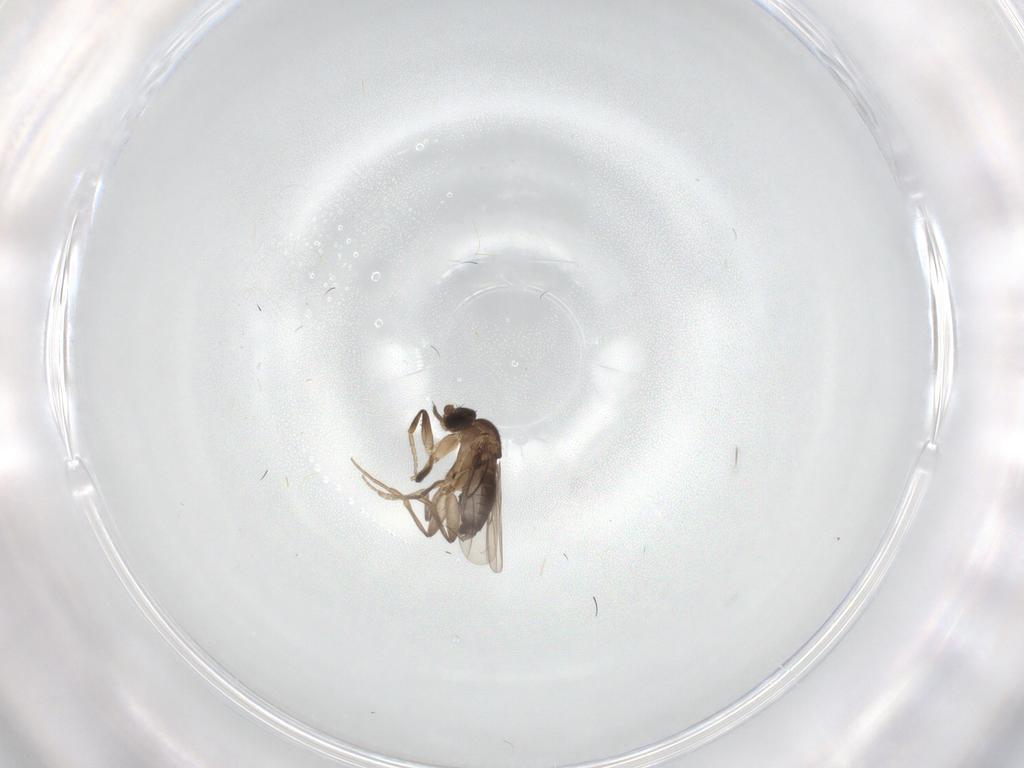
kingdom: Animalia
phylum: Arthropoda
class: Insecta
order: Diptera
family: Phoridae
